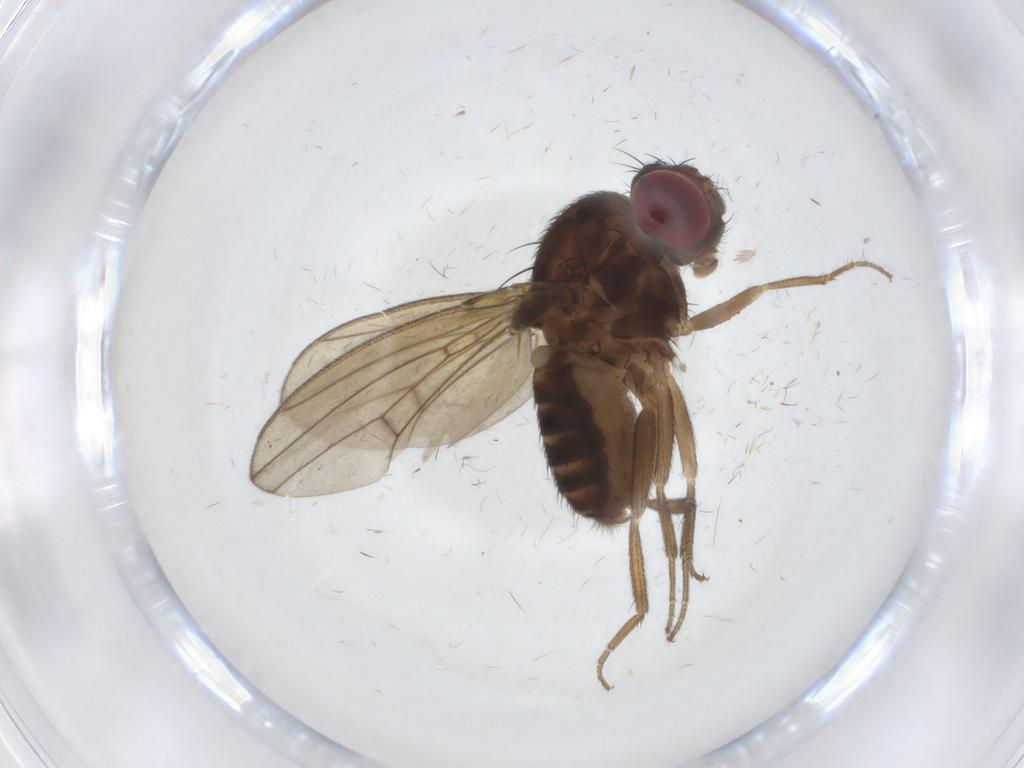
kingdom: Animalia
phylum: Arthropoda
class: Insecta
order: Diptera
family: Drosophilidae
